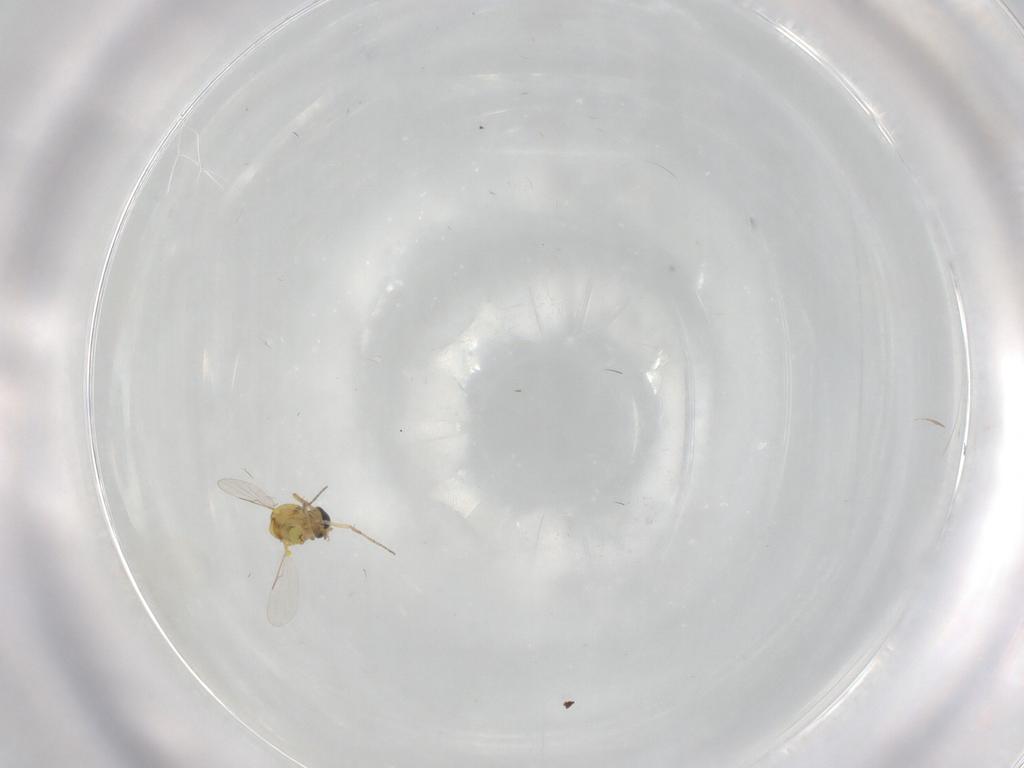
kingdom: Animalia
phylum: Arthropoda
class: Insecta
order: Diptera
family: Ceratopogonidae
